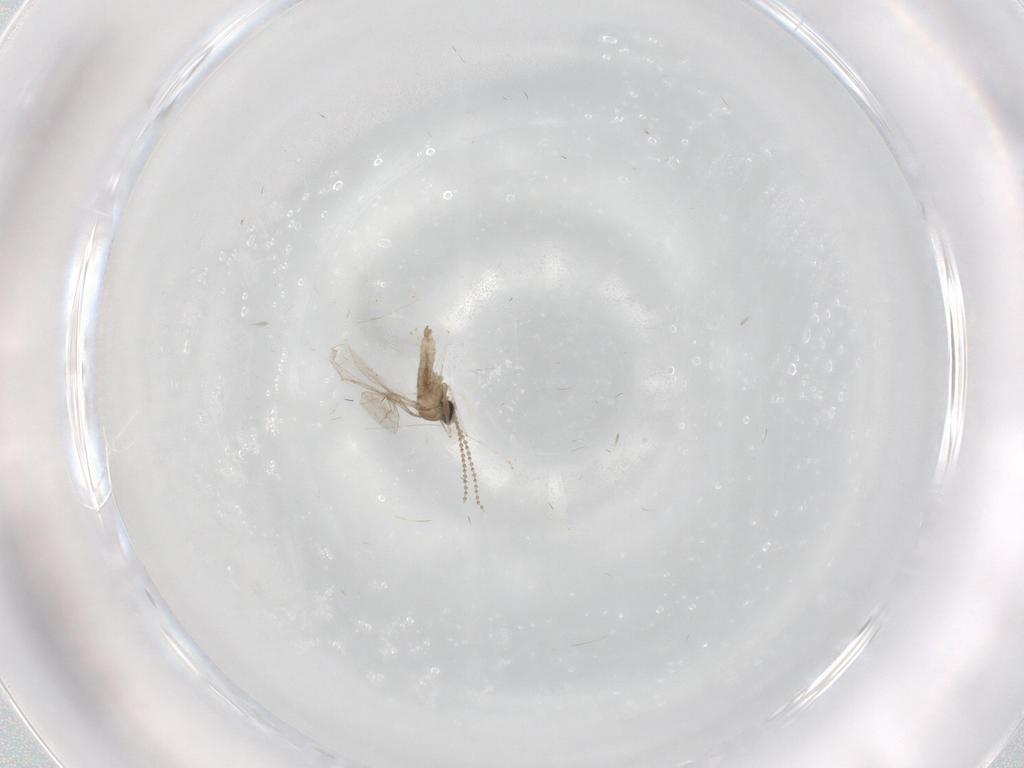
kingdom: Animalia
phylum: Arthropoda
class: Insecta
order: Diptera
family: Cecidomyiidae
